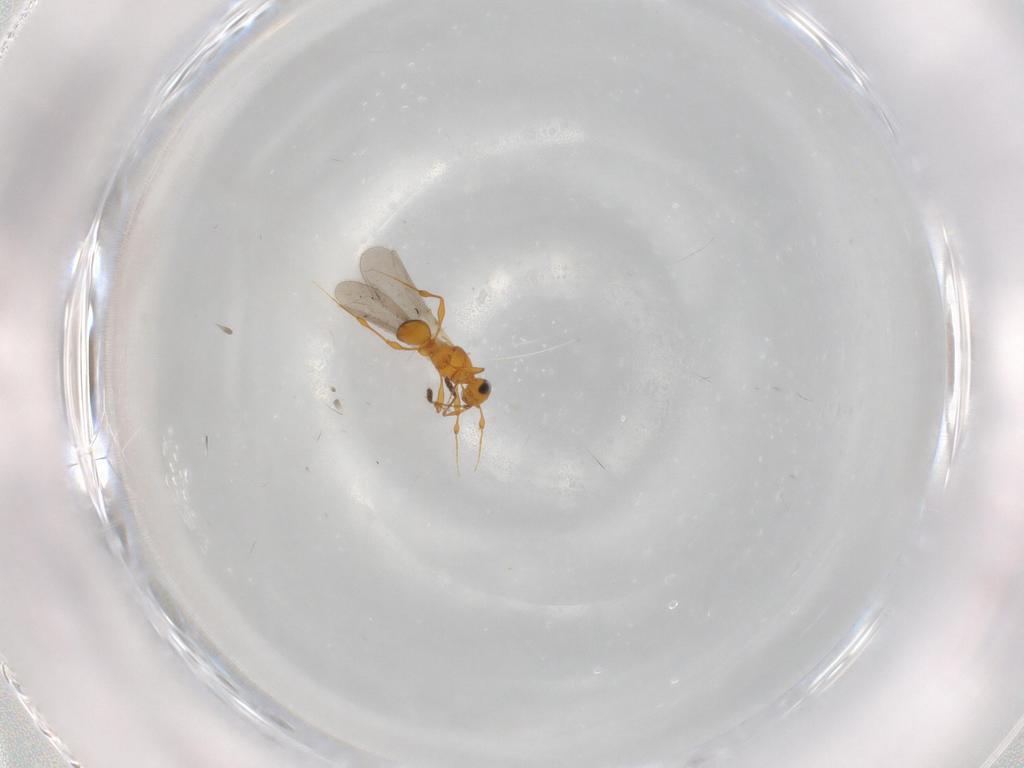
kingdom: Animalia
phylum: Arthropoda
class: Insecta
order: Hymenoptera
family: Platygastridae
